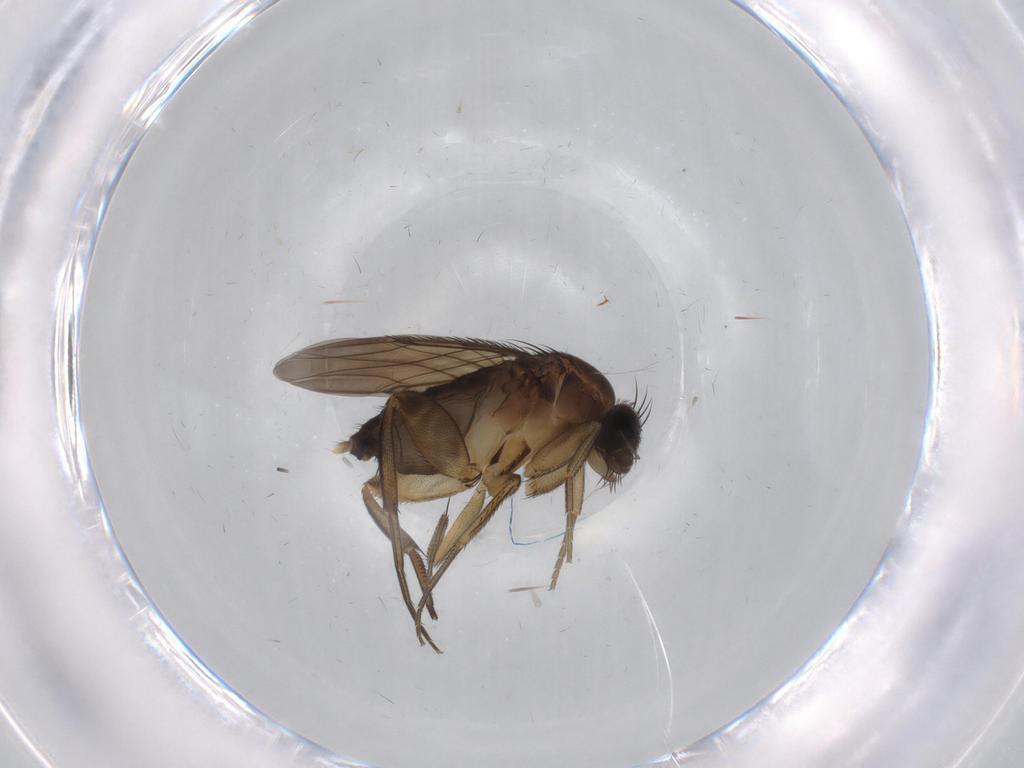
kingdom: Animalia
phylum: Arthropoda
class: Insecta
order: Diptera
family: Phoridae
